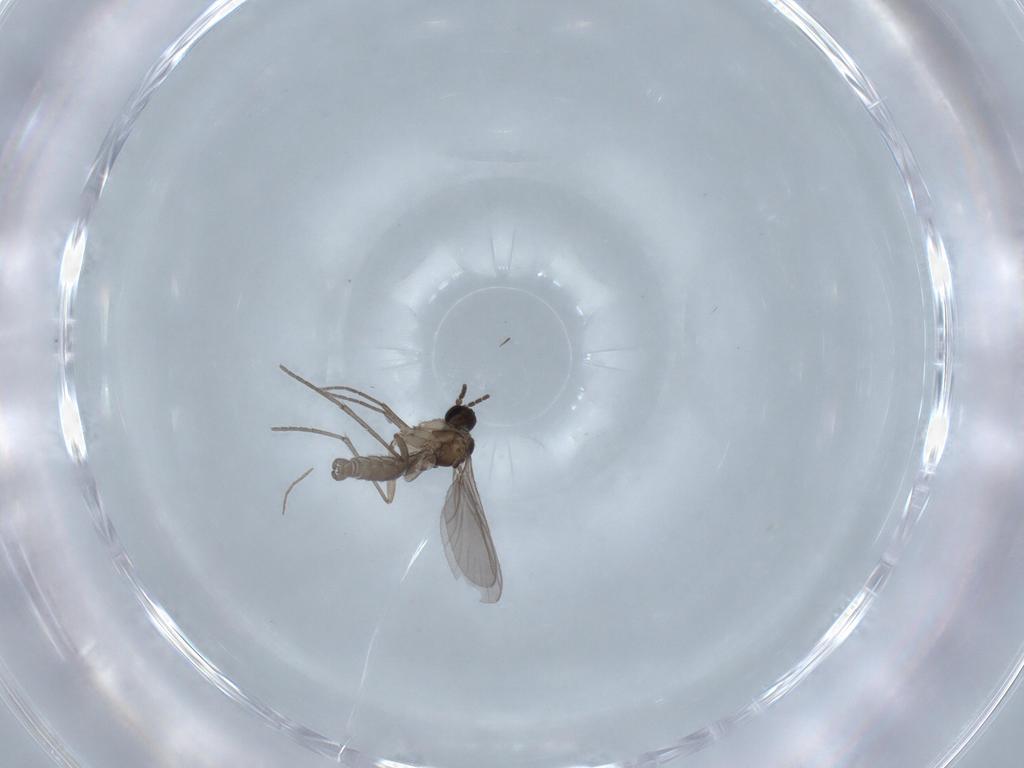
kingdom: Animalia
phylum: Arthropoda
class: Insecta
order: Diptera
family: Sciaridae
